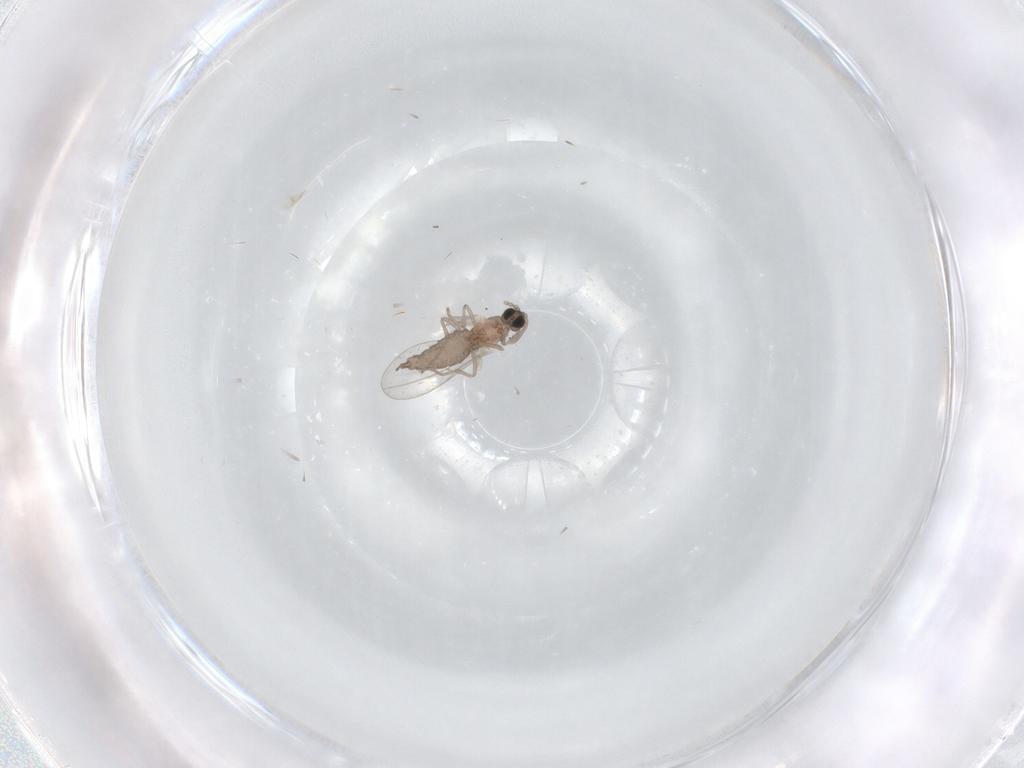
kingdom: Animalia
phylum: Arthropoda
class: Insecta
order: Diptera
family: Cecidomyiidae
